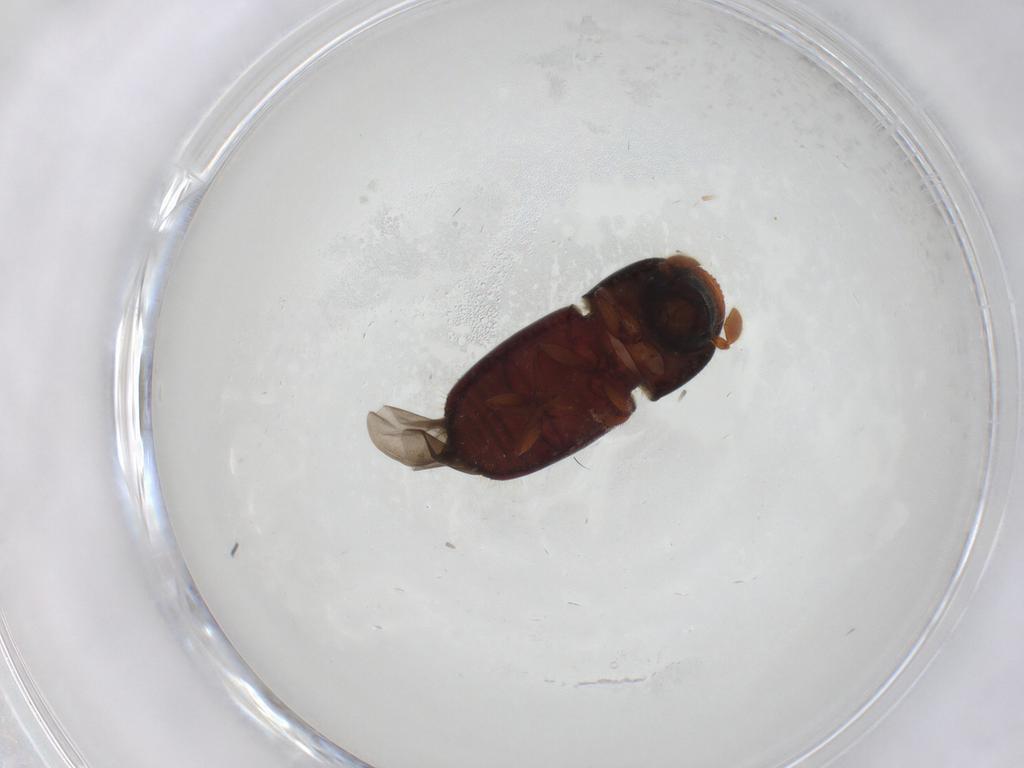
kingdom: Animalia
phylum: Arthropoda
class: Insecta
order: Coleoptera
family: Curculionidae
